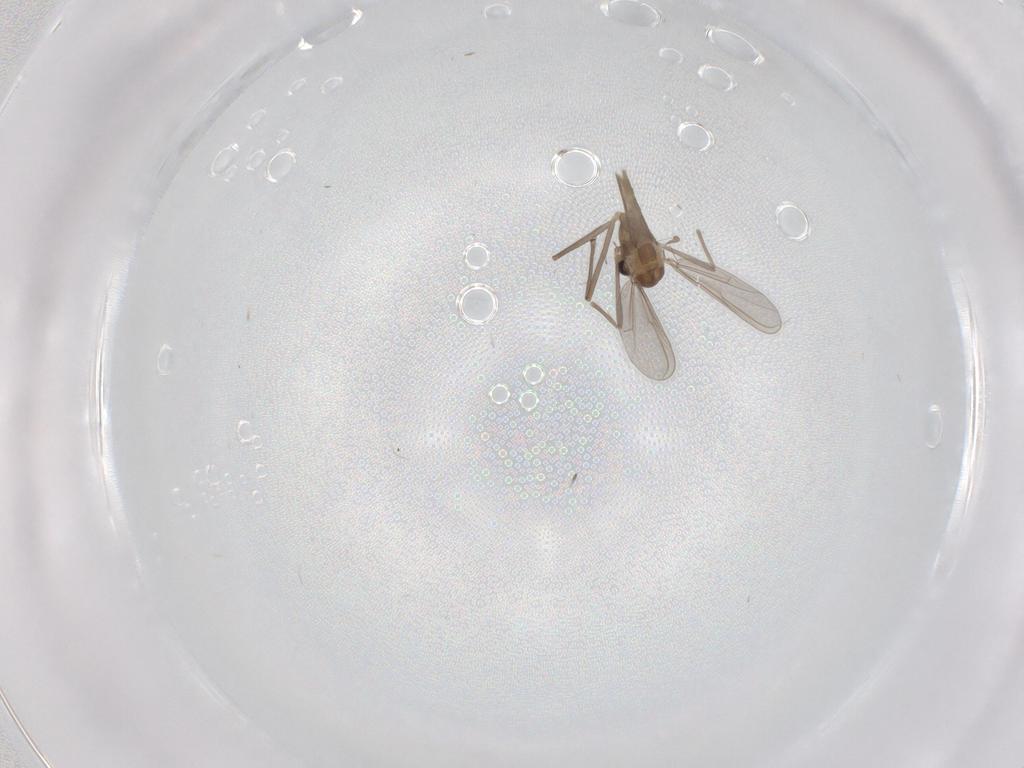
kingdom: Animalia
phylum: Arthropoda
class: Insecta
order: Diptera
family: Chironomidae
